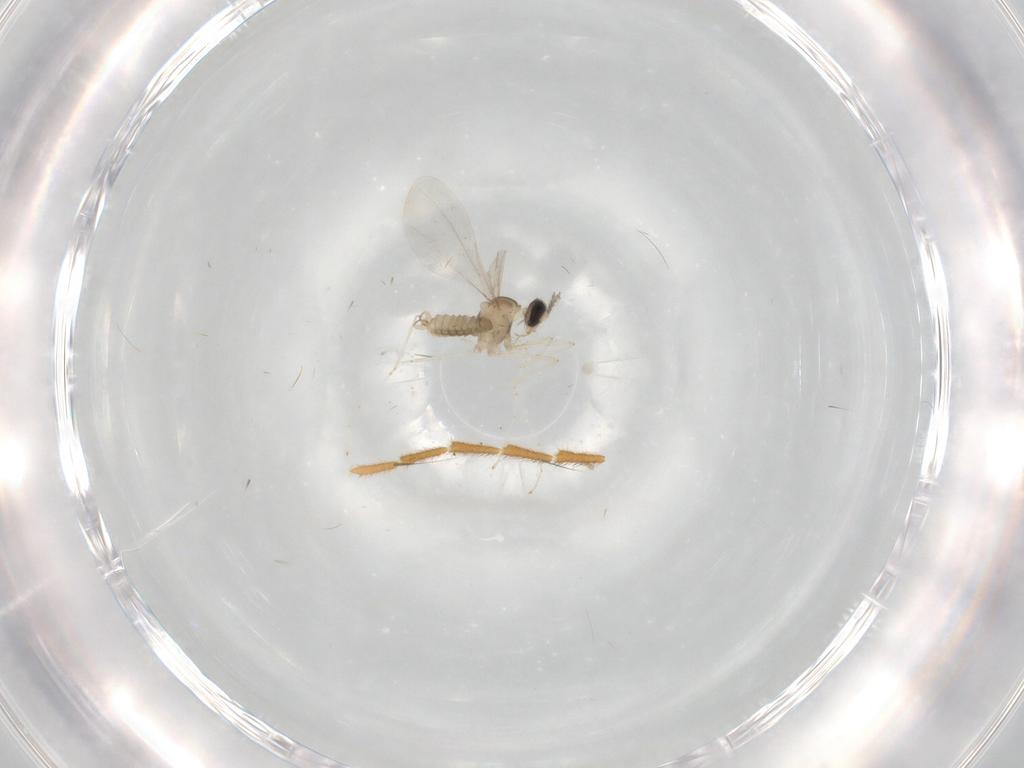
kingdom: Animalia
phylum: Arthropoda
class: Insecta
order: Diptera
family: Cecidomyiidae
